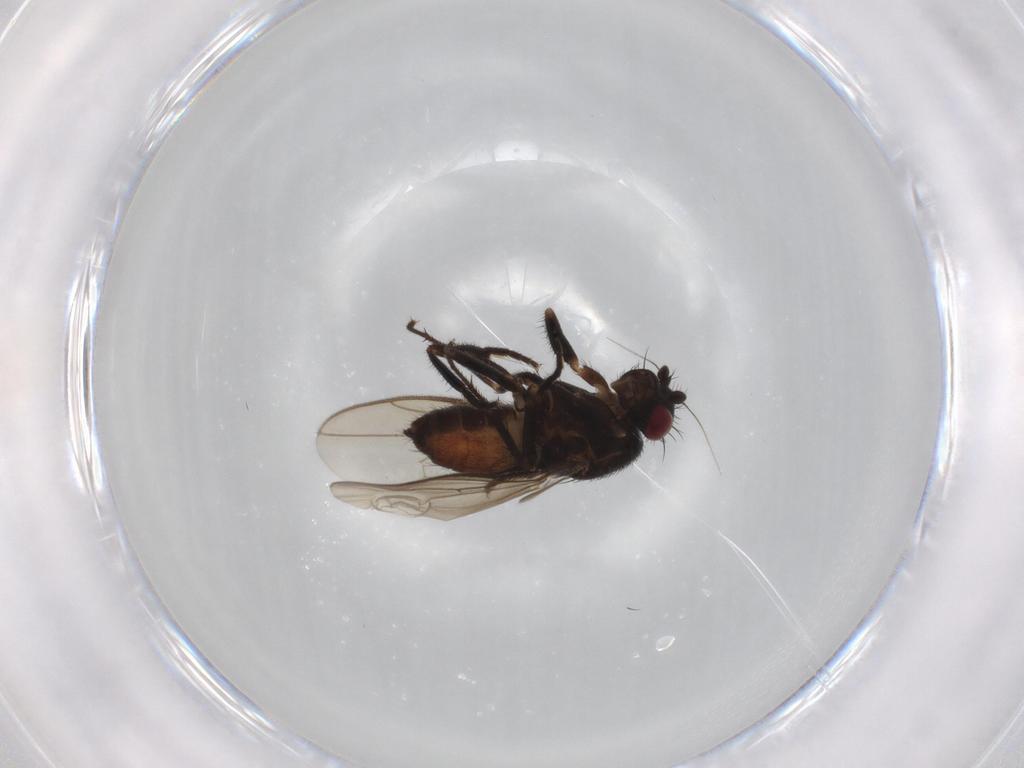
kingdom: Animalia
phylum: Arthropoda
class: Insecta
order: Diptera
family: Sphaeroceridae
